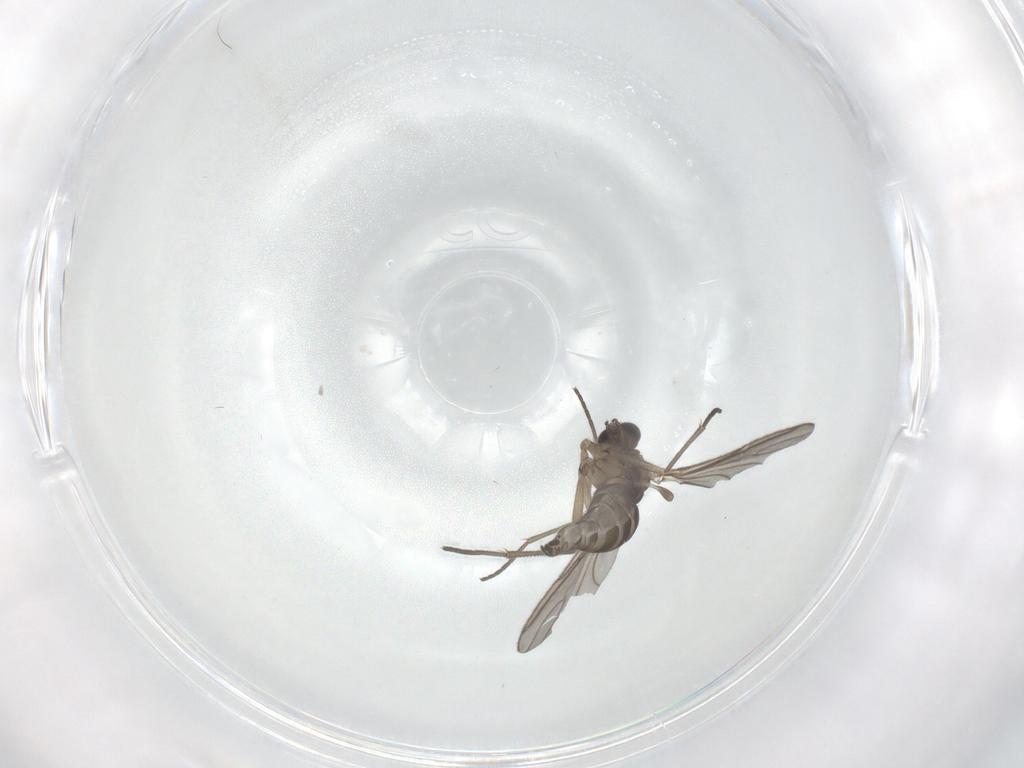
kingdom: Animalia
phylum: Arthropoda
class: Insecta
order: Diptera
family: Sciaridae
